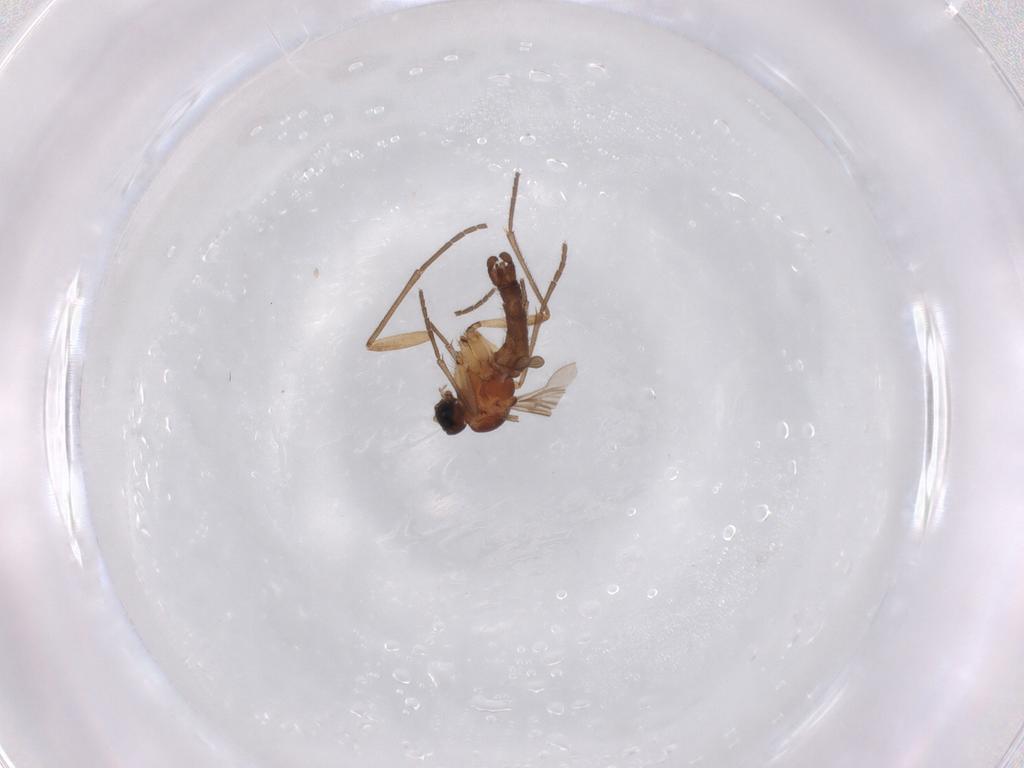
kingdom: Animalia
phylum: Arthropoda
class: Insecta
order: Diptera
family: Sciaridae
